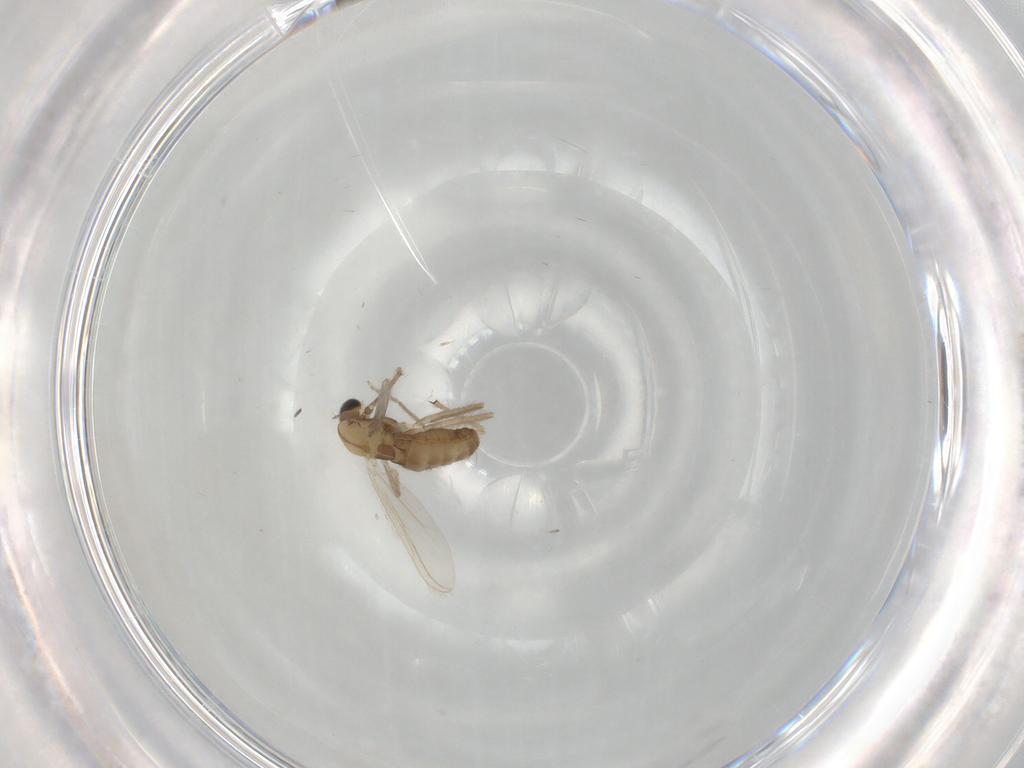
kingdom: Animalia
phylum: Arthropoda
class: Insecta
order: Diptera
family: Chironomidae
